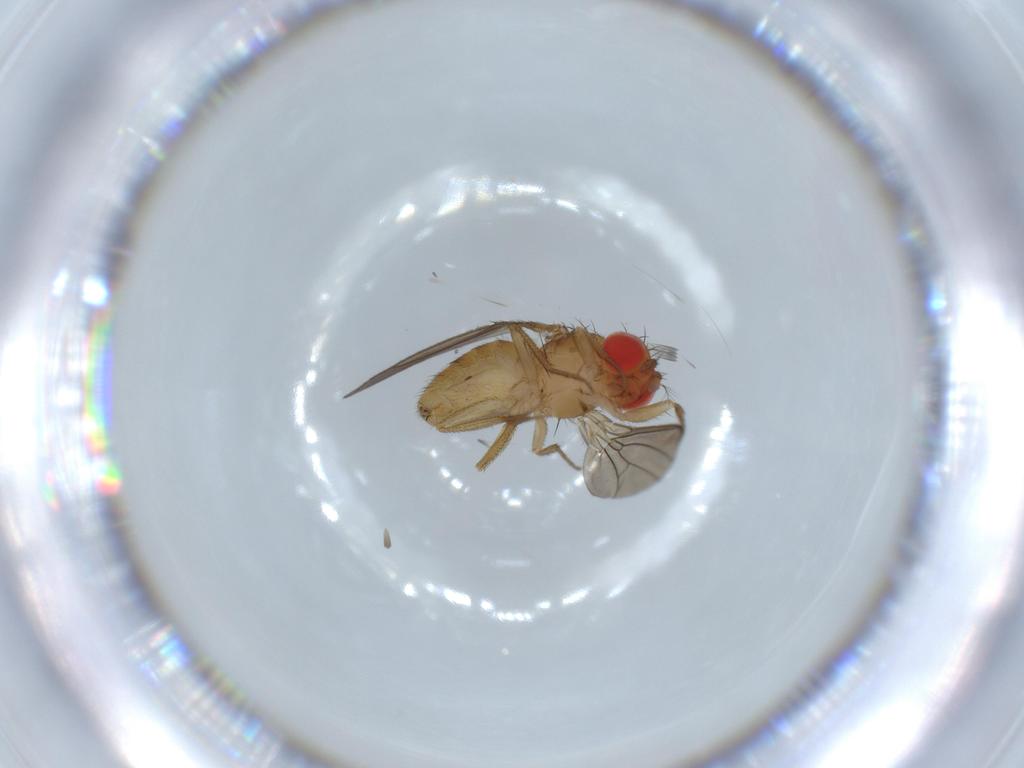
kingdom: Animalia
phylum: Arthropoda
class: Insecta
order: Diptera
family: Drosophilidae
